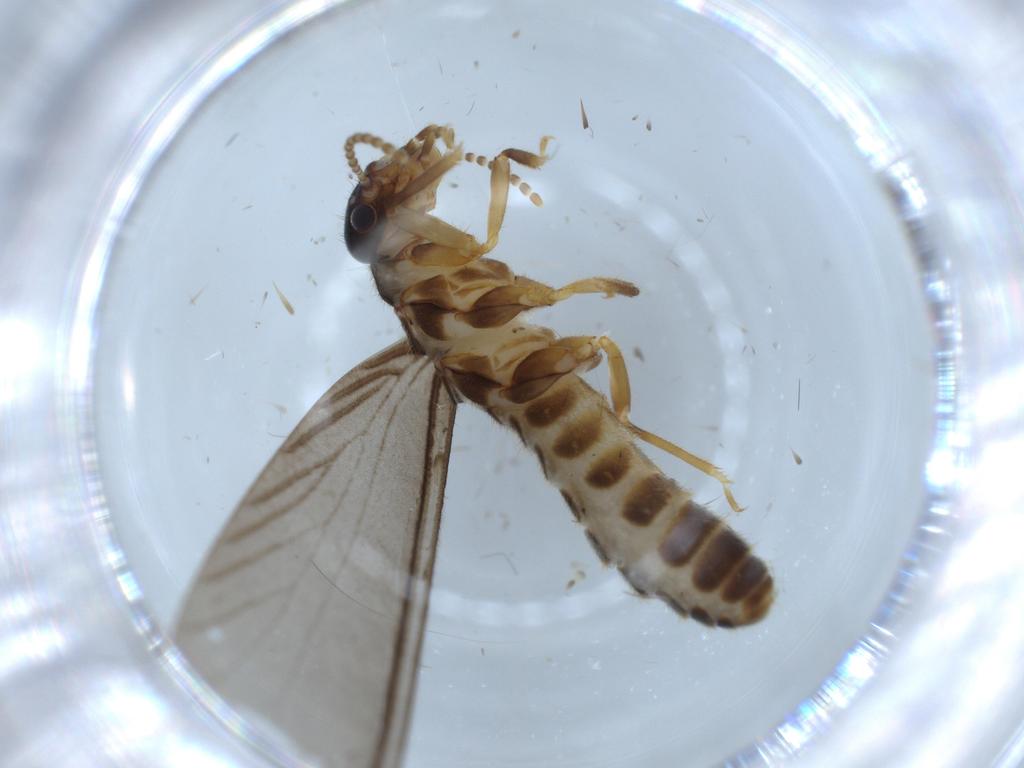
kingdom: Animalia
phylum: Arthropoda
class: Insecta
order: Blattodea
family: Termitidae
